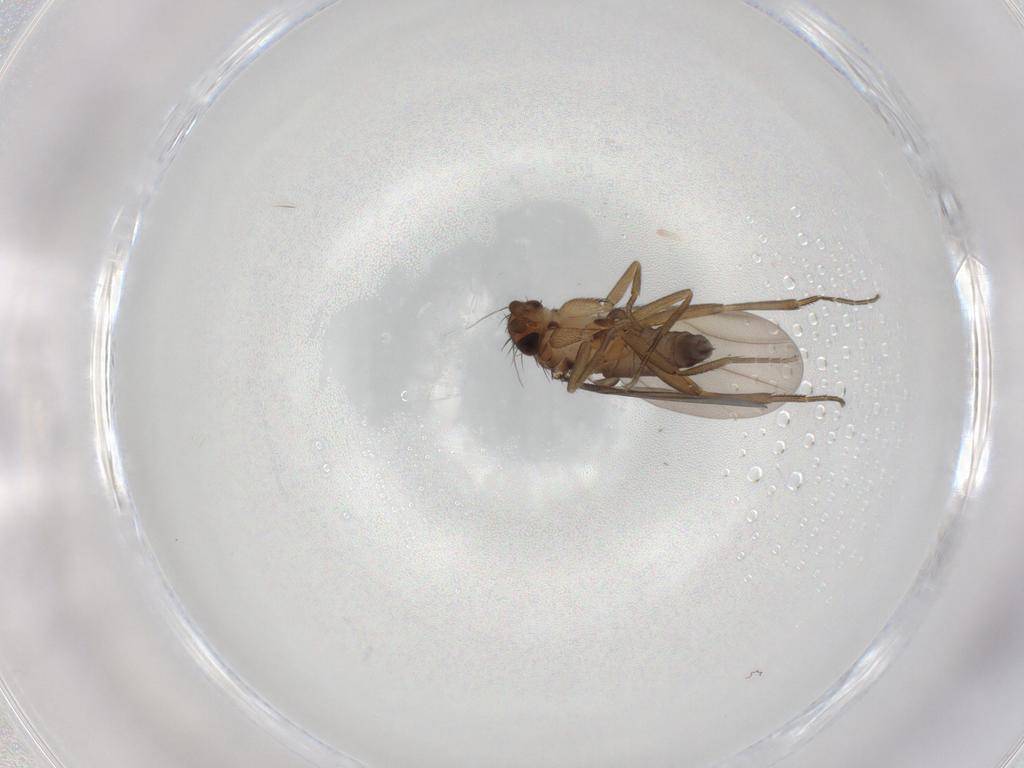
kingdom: Animalia
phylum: Arthropoda
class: Insecta
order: Diptera
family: Phoridae
